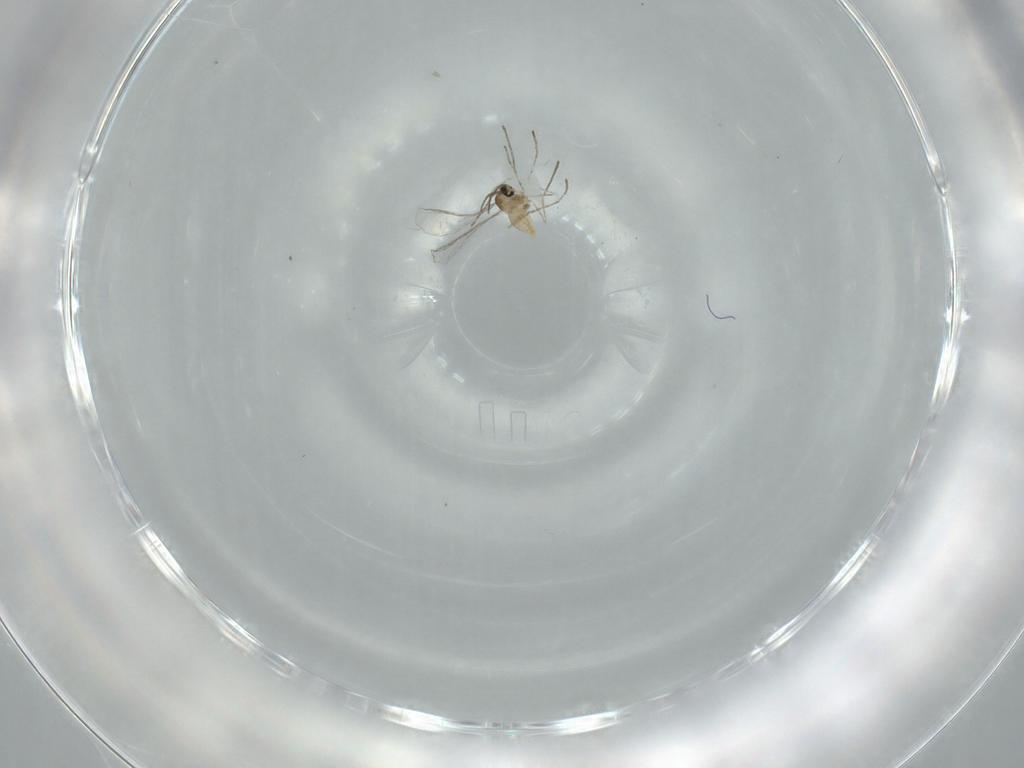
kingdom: Animalia
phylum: Arthropoda
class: Insecta
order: Diptera
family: Cecidomyiidae
